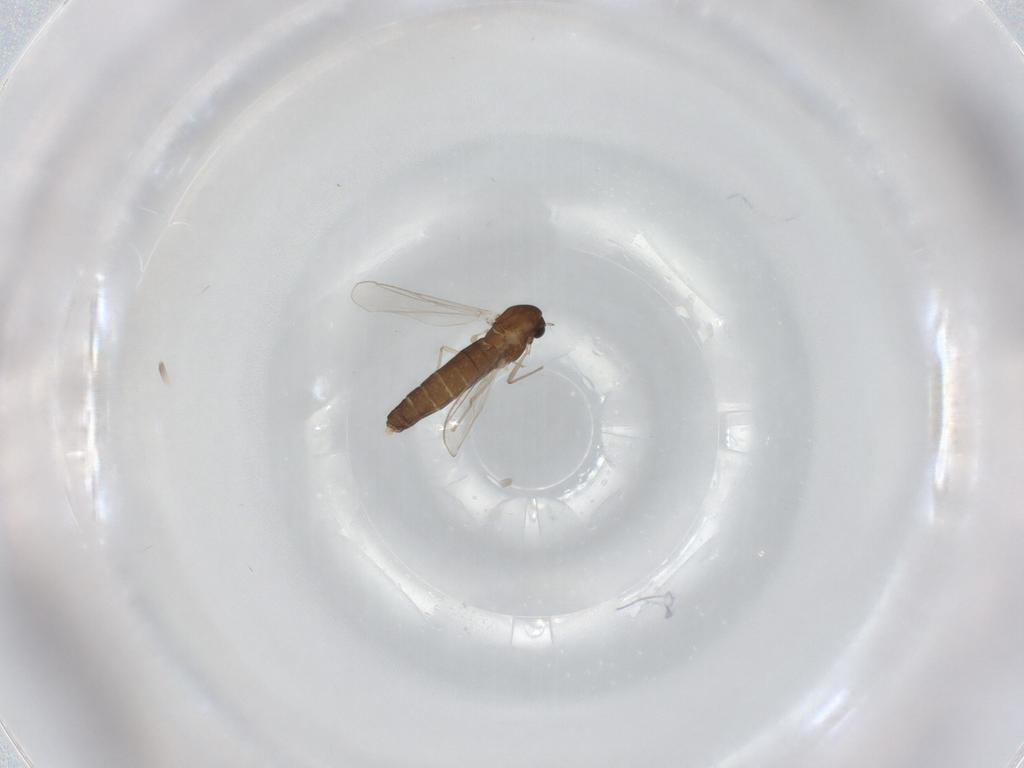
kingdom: Animalia
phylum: Arthropoda
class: Insecta
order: Diptera
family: Chironomidae
